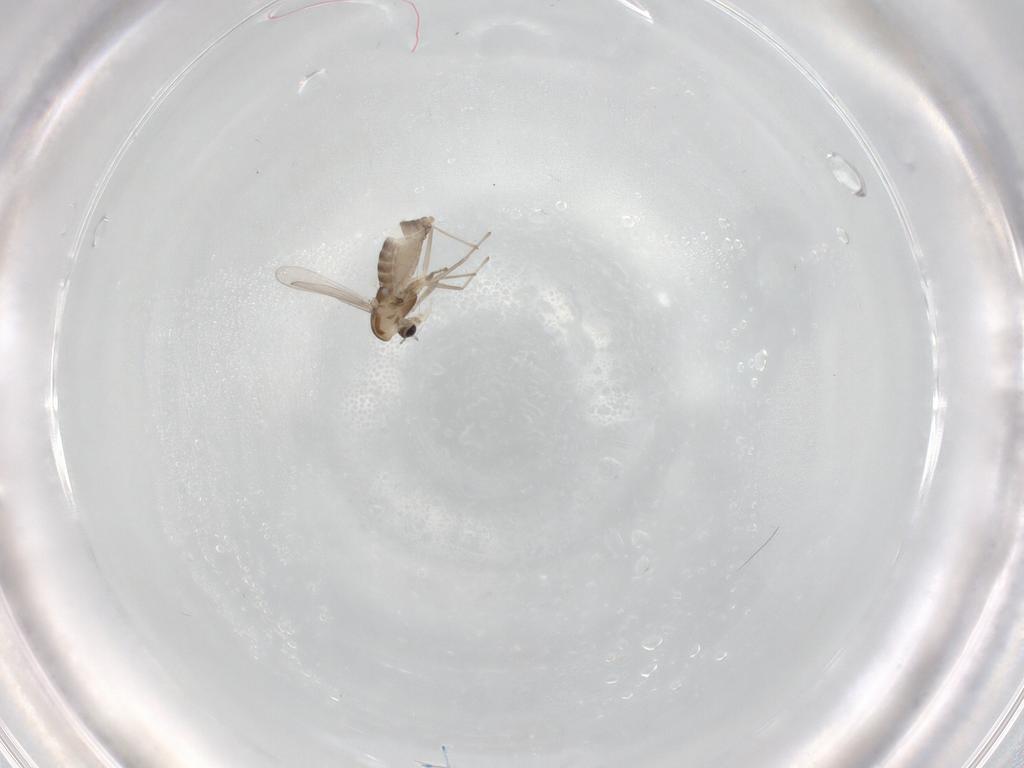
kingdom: Animalia
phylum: Arthropoda
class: Insecta
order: Diptera
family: Chironomidae
